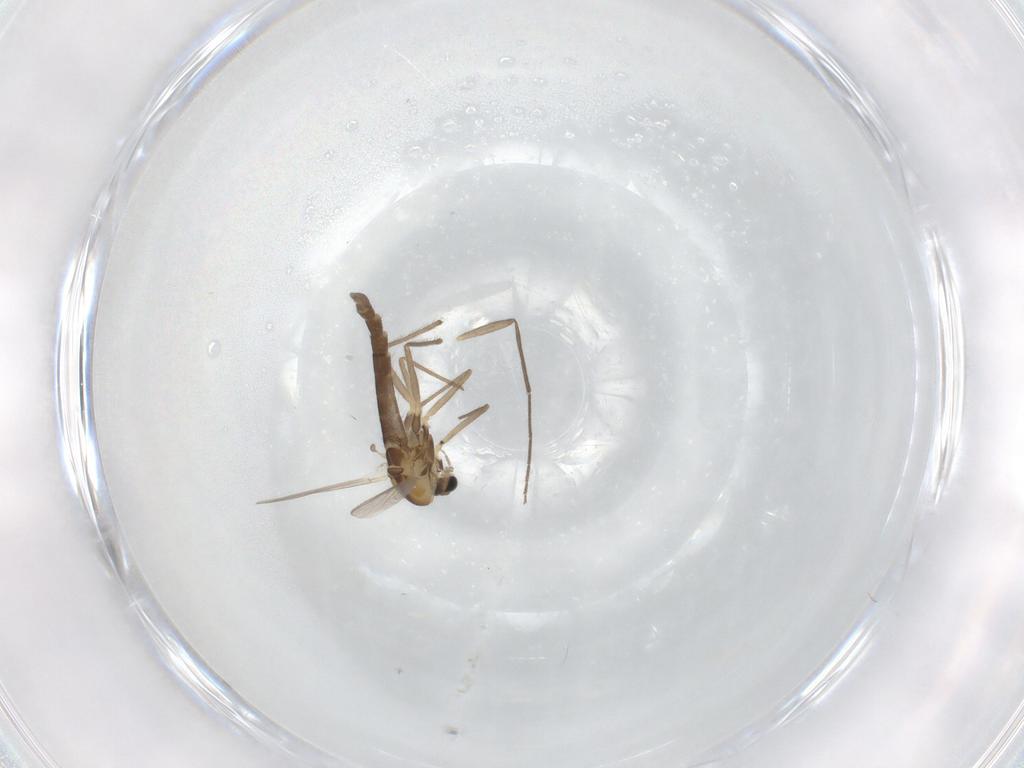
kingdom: Animalia
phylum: Arthropoda
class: Insecta
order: Diptera
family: Chironomidae
